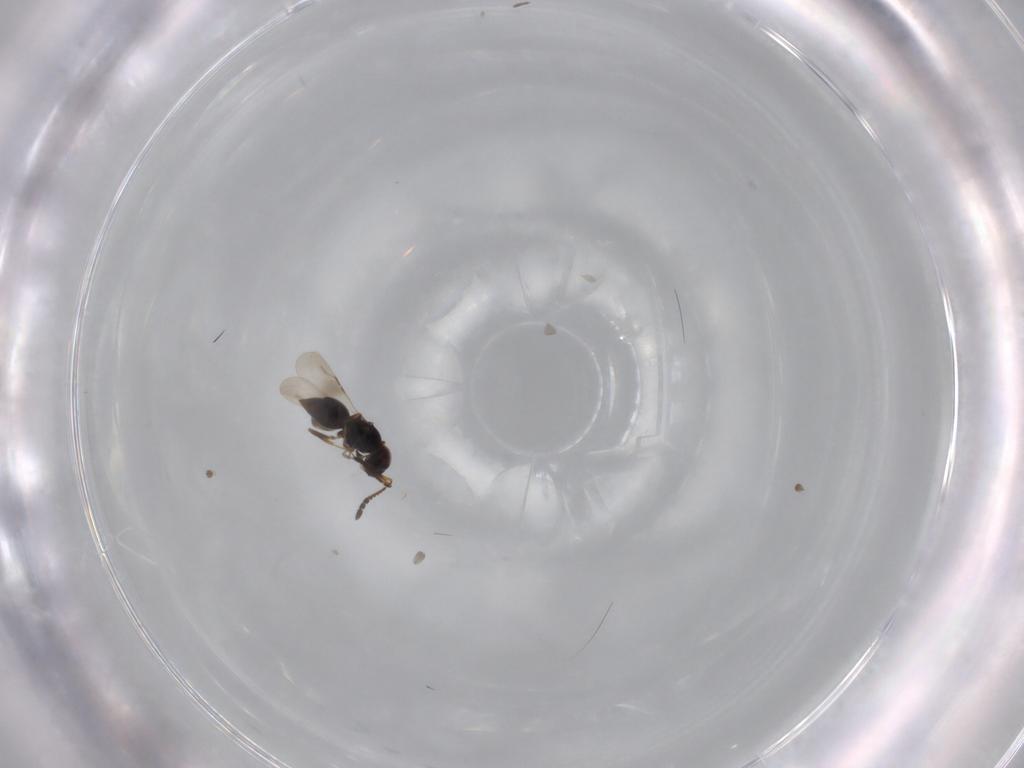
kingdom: Animalia
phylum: Arthropoda
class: Insecta
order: Hymenoptera
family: Ceraphronidae
